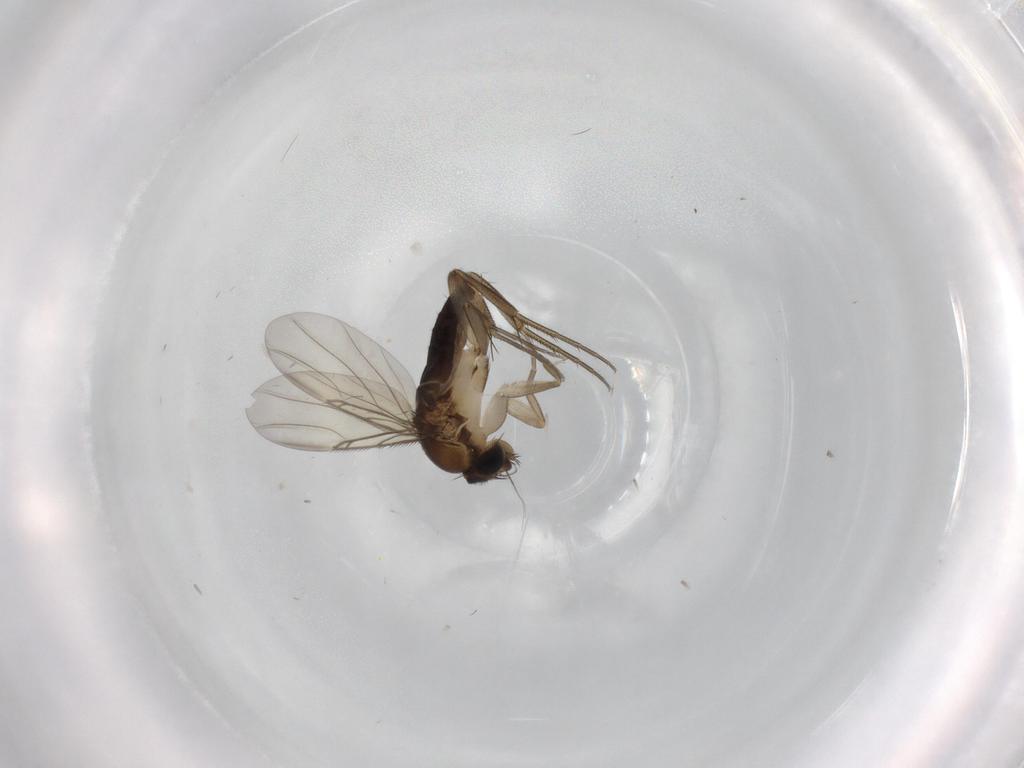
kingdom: Animalia
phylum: Arthropoda
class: Insecta
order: Diptera
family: Phoridae
